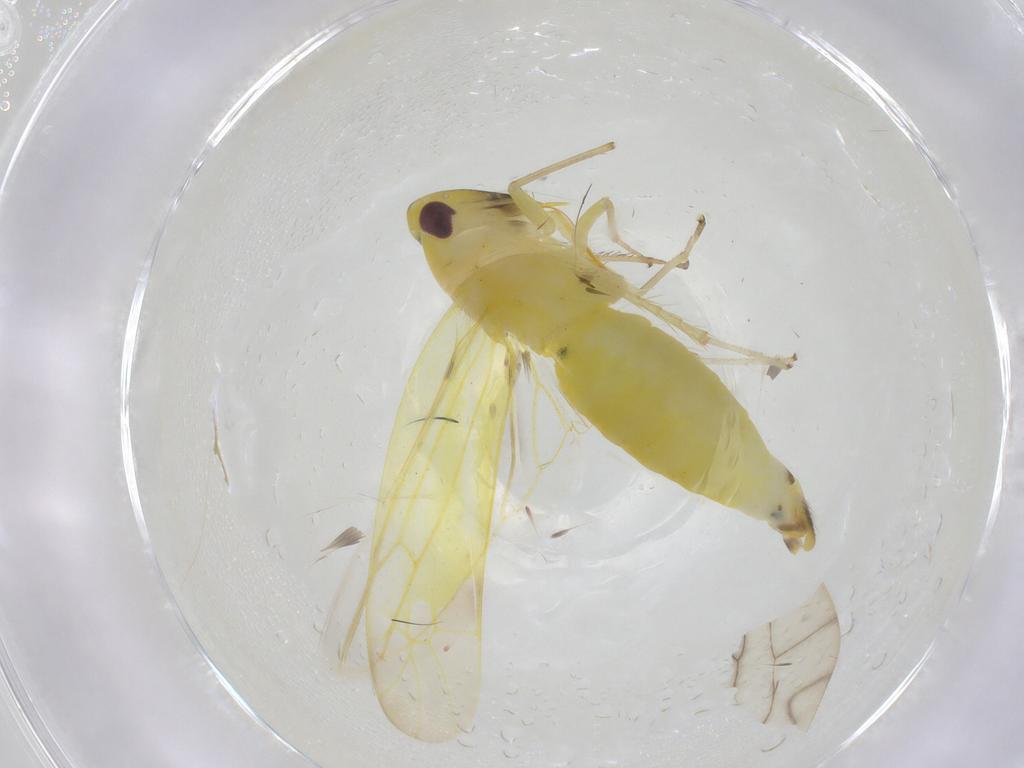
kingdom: Animalia
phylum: Arthropoda
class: Insecta
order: Hemiptera
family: Cicadellidae
